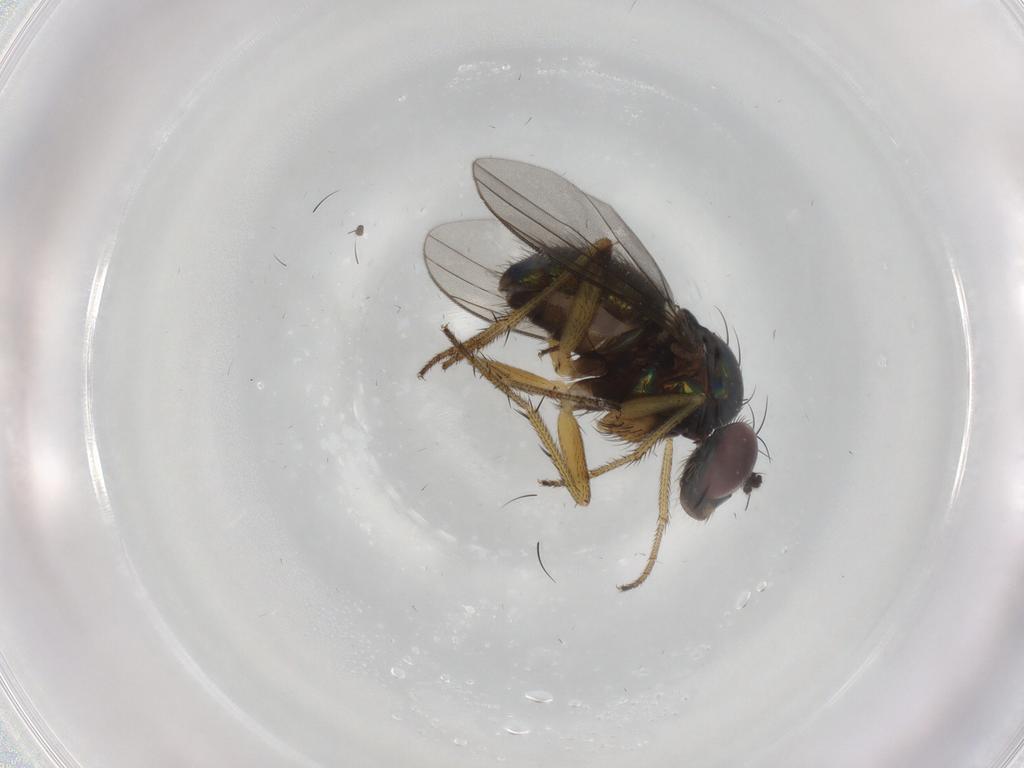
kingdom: Animalia
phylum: Arthropoda
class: Insecta
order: Diptera
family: Dolichopodidae
